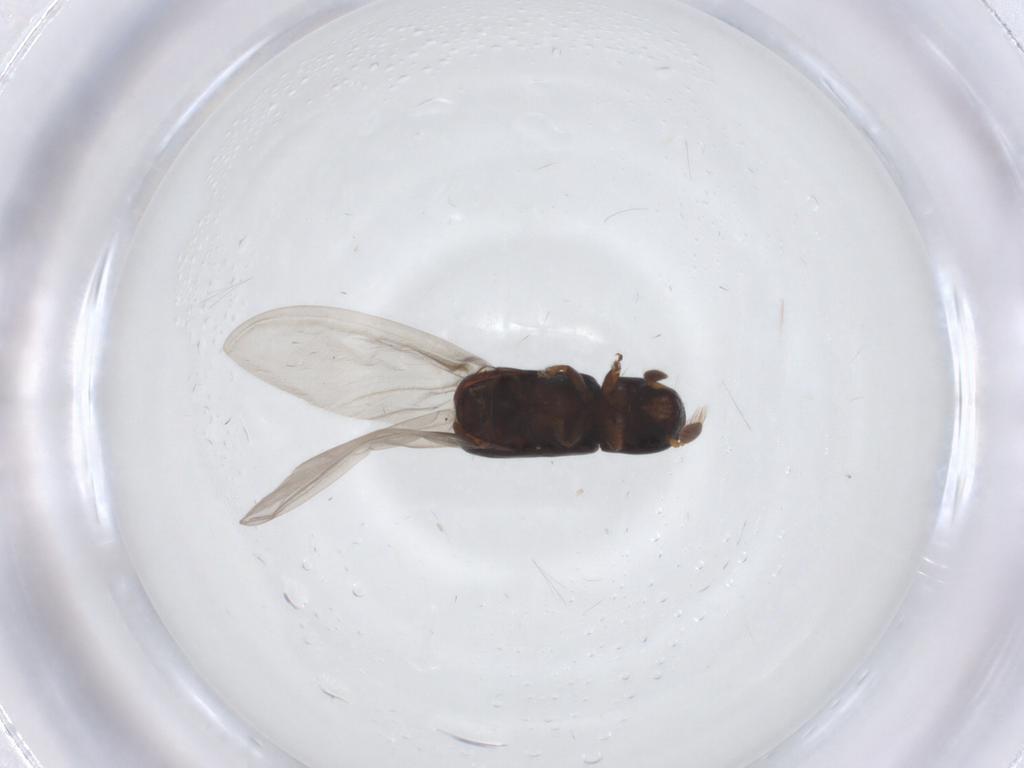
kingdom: Animalia
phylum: Arthropoda
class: Insecta
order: Coleoptera
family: Curculionidae
